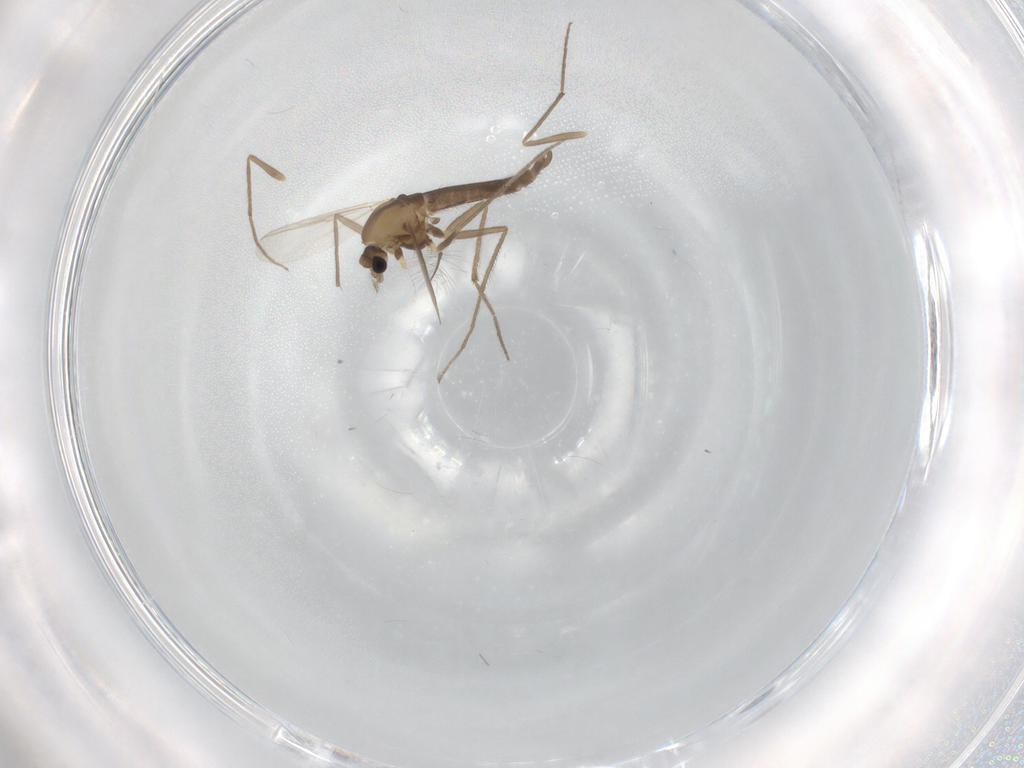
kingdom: Animalia
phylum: Arthropoda
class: Insecta
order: Diptera
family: Chironomidae
